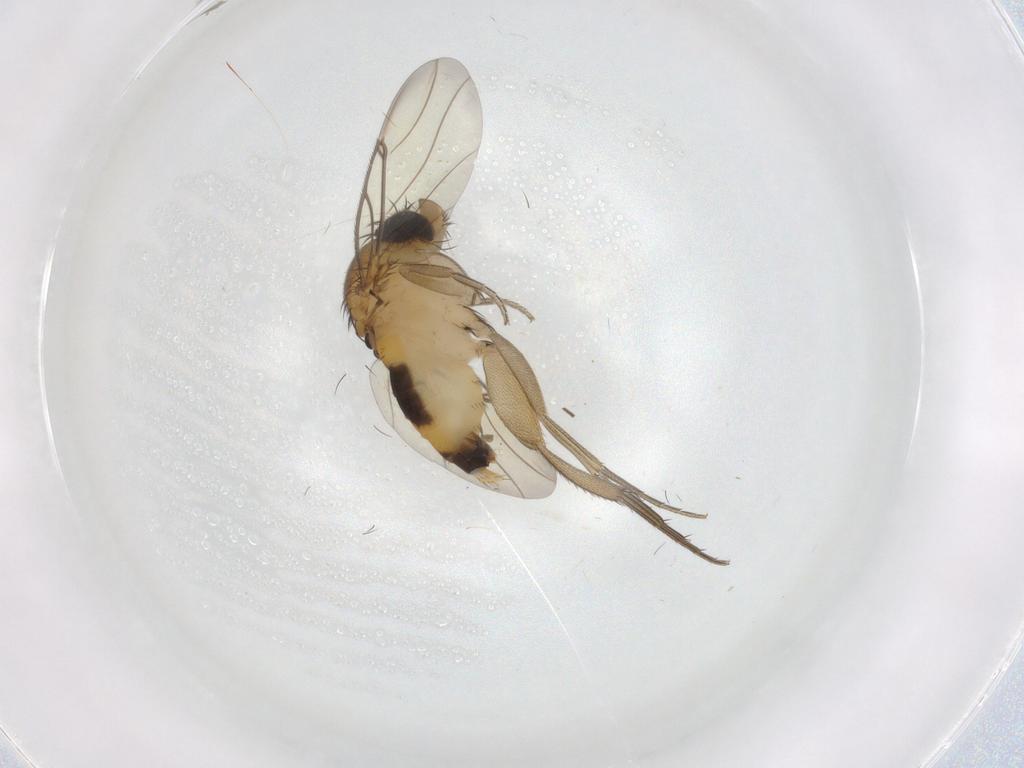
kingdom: Animalia
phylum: Arthropoda
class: Insecta
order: Diptera
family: Phoridae
